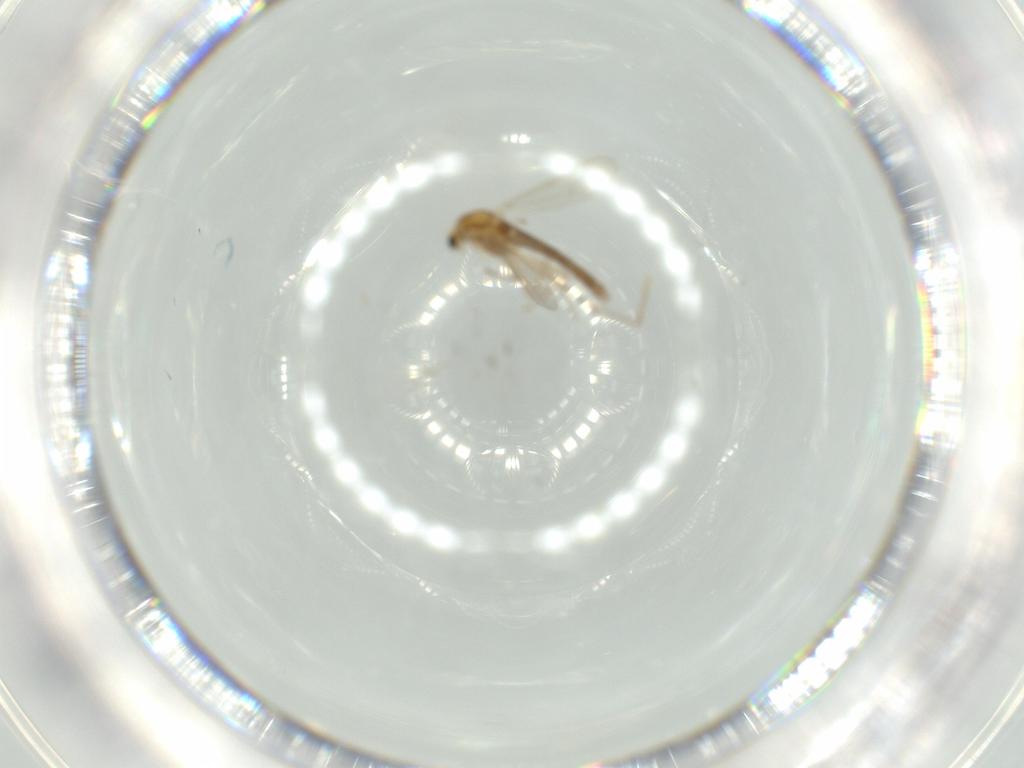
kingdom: Animalia
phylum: Arthropoda
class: Insecta
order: Diptera
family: Chironomidae
